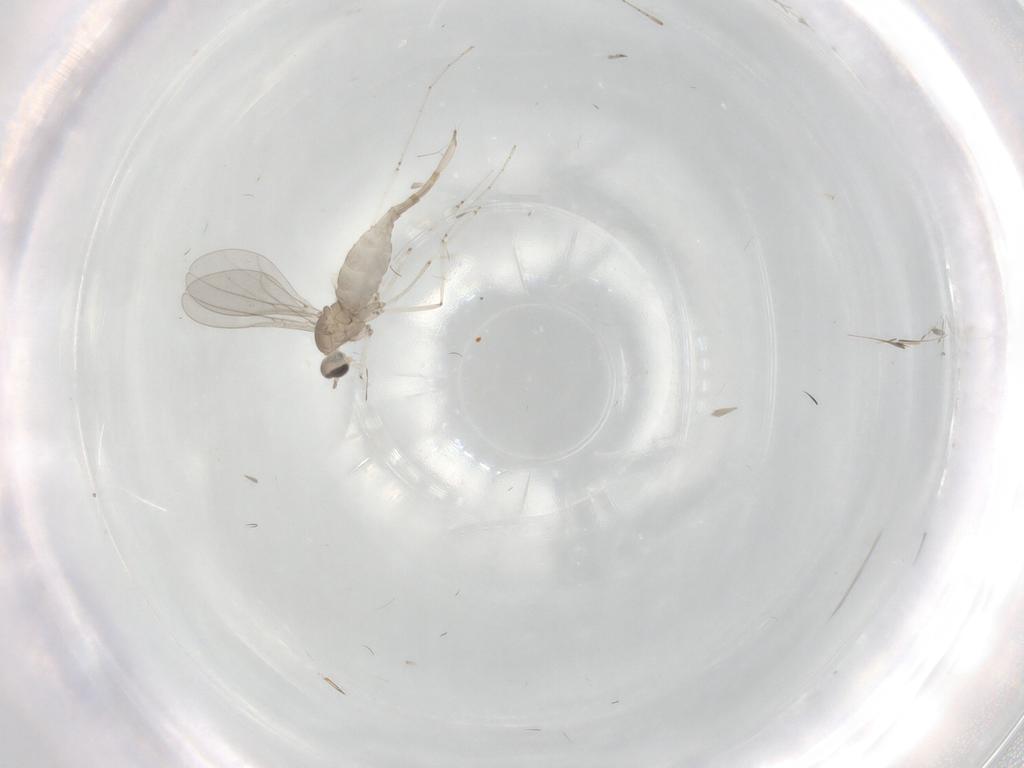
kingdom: Animalia
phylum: Arthropoda
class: Insecta
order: Diptera
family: Cecidomyiidae
